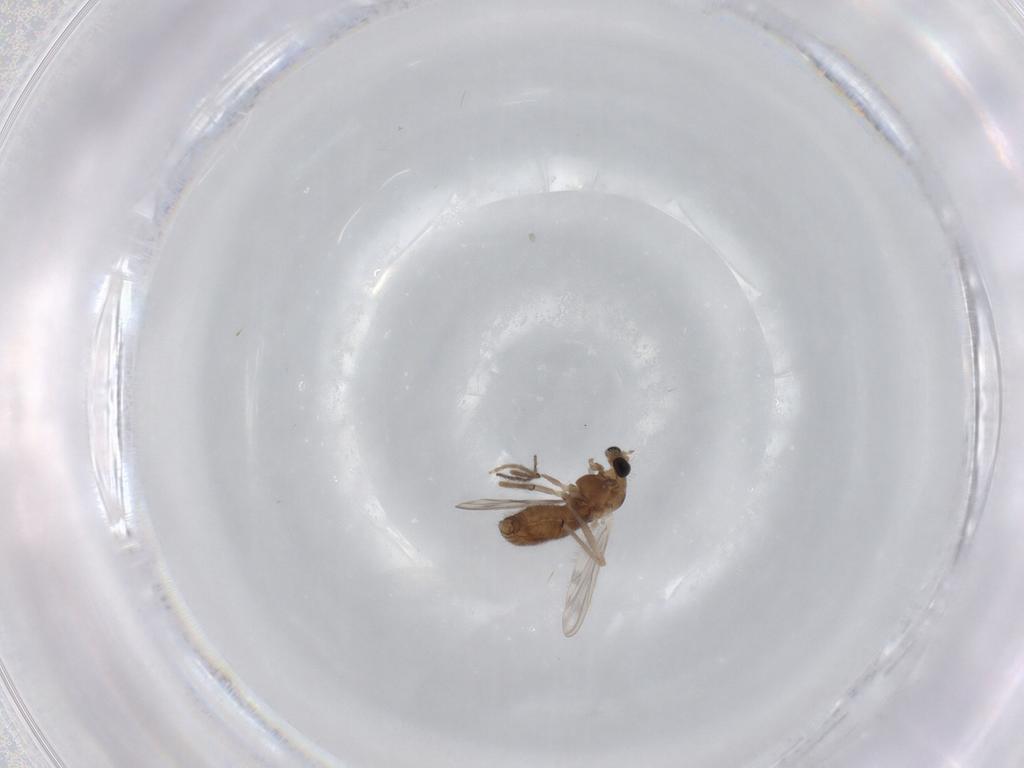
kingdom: Animalia
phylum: Arthropoda
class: Insecta
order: Diptera
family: Chironomidae
